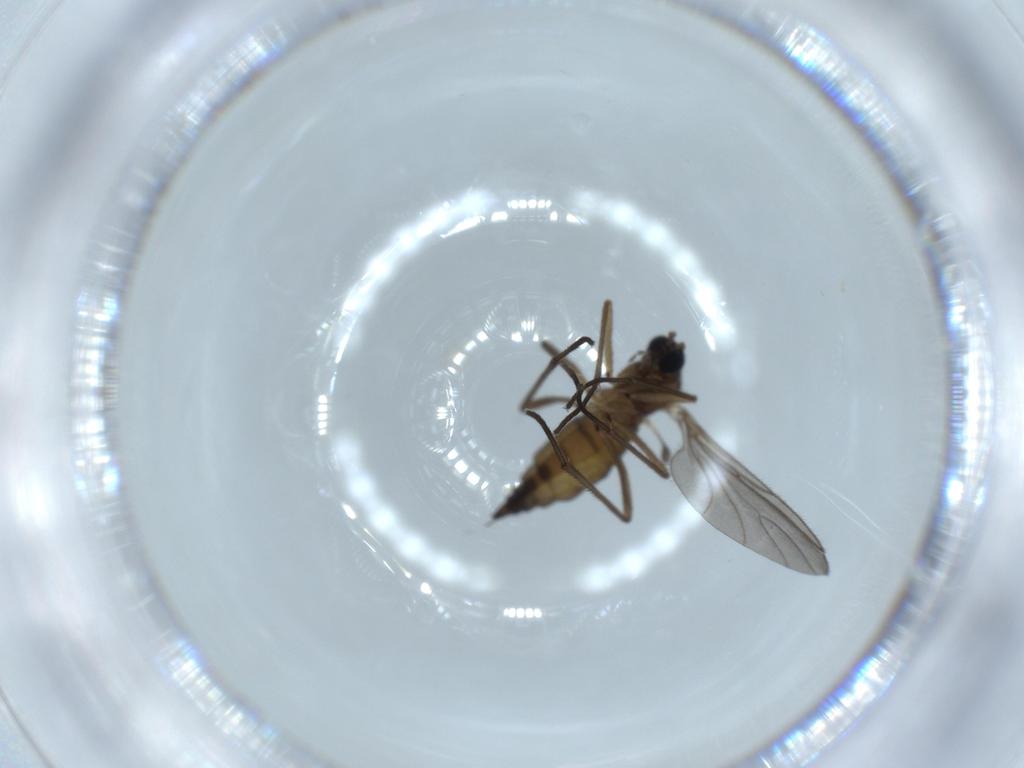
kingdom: Animalia
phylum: Arthropoda
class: Insecta
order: Diptera
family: Sciaridae
